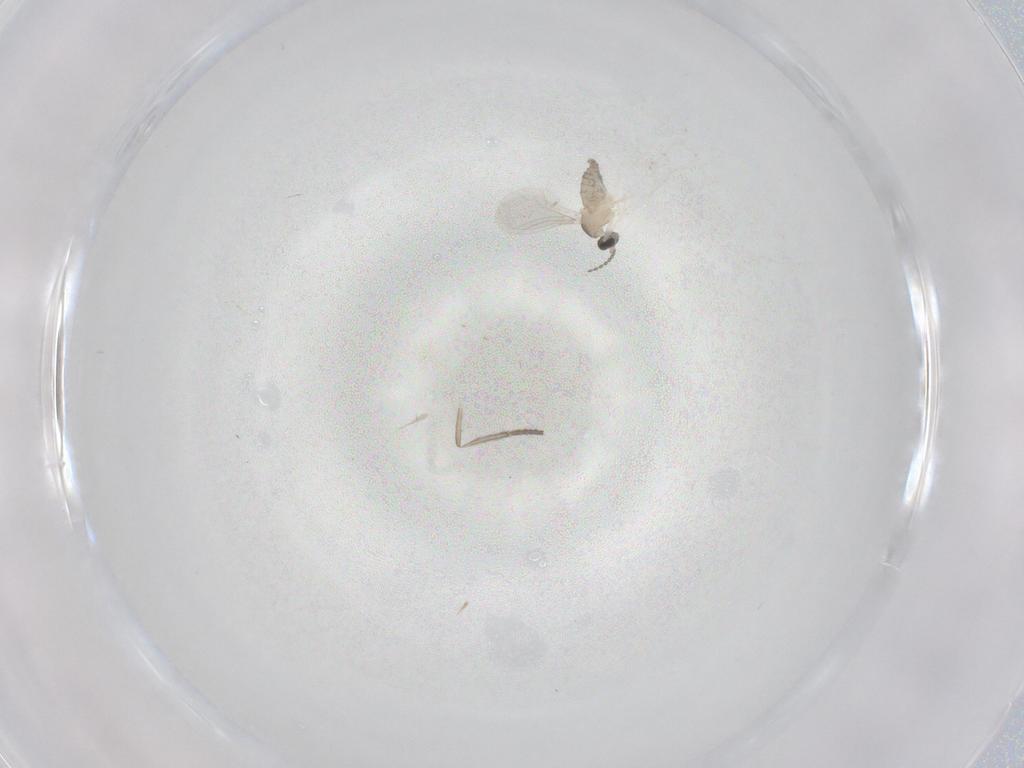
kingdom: Animalia
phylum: Arthropoda
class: Insecta
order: Diptera
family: Cecidomyiidae
